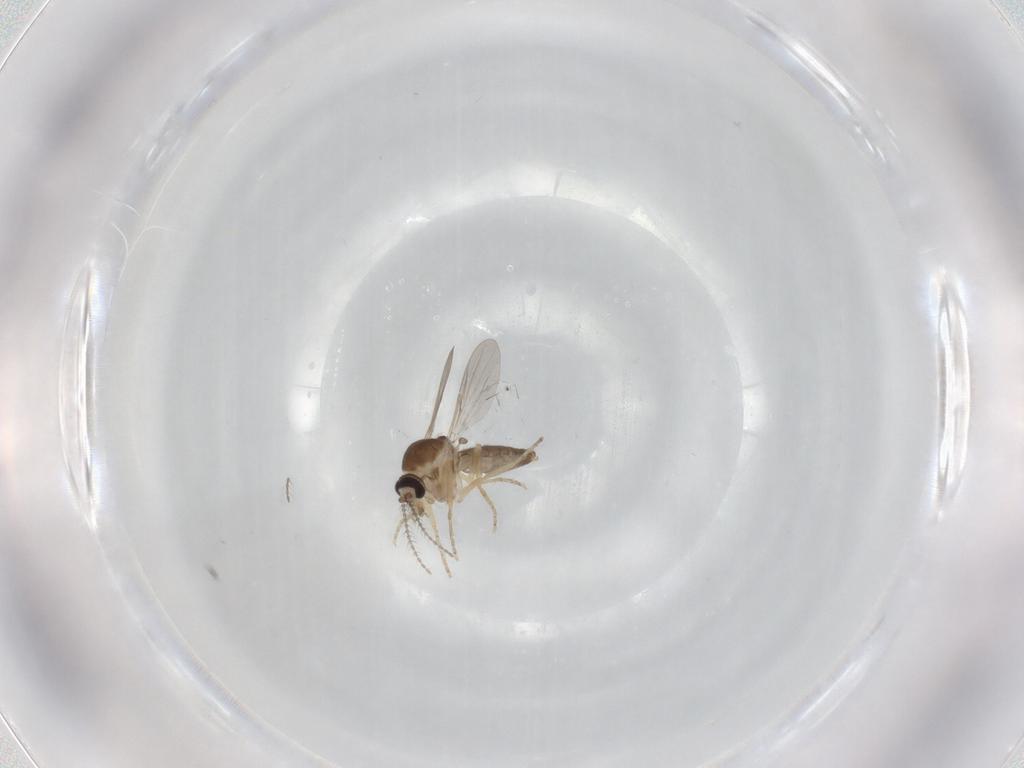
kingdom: Animalia
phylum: Arthropoda
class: Insecta
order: Diptera
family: Ceratopogonidae
